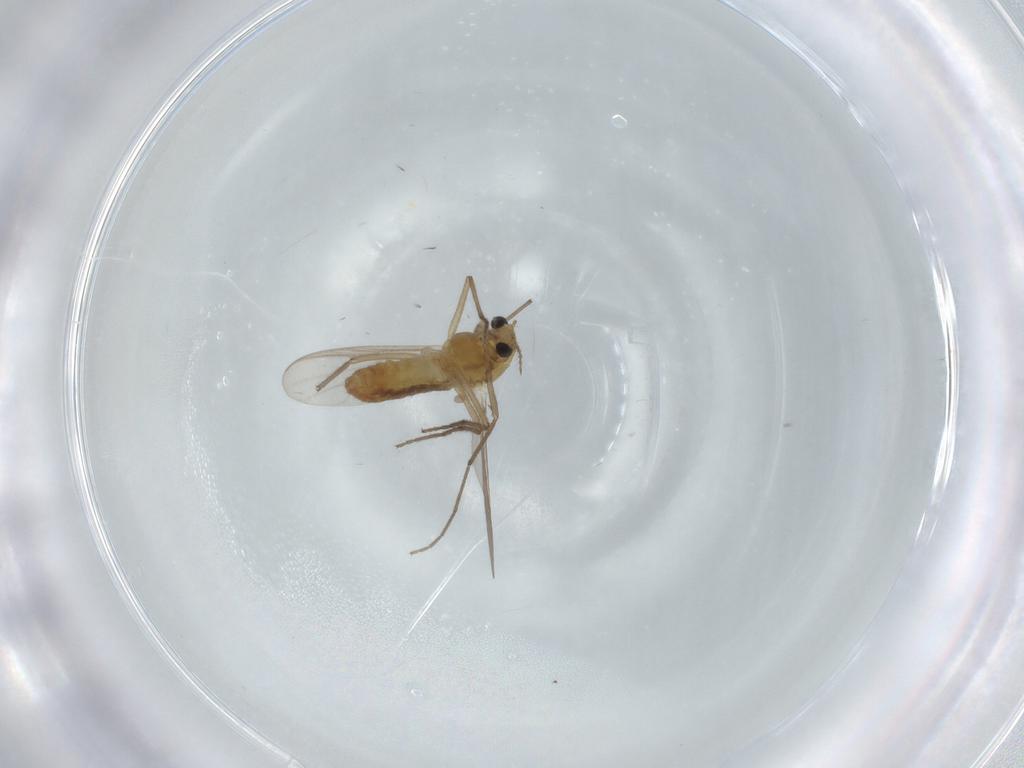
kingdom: Animalia
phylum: Arthropoda
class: Insecta
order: Diptera
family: Chironomidae
